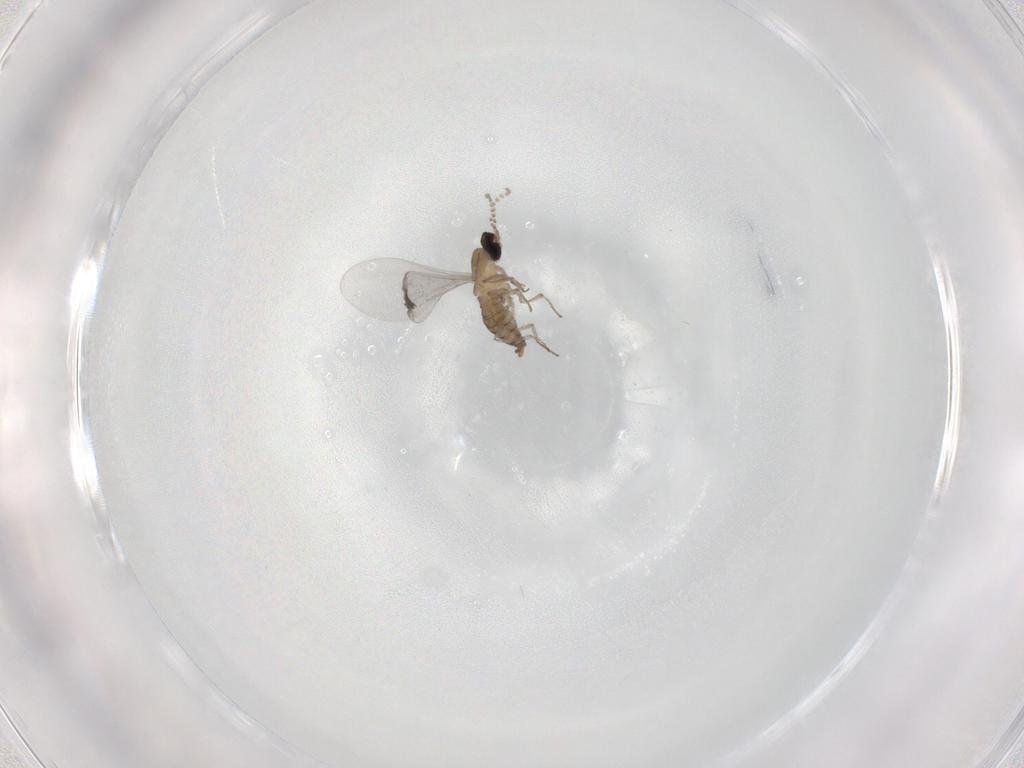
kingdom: Animalia
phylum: Arthropoda
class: Insecta
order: Diptera
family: Cecidomyiidae
